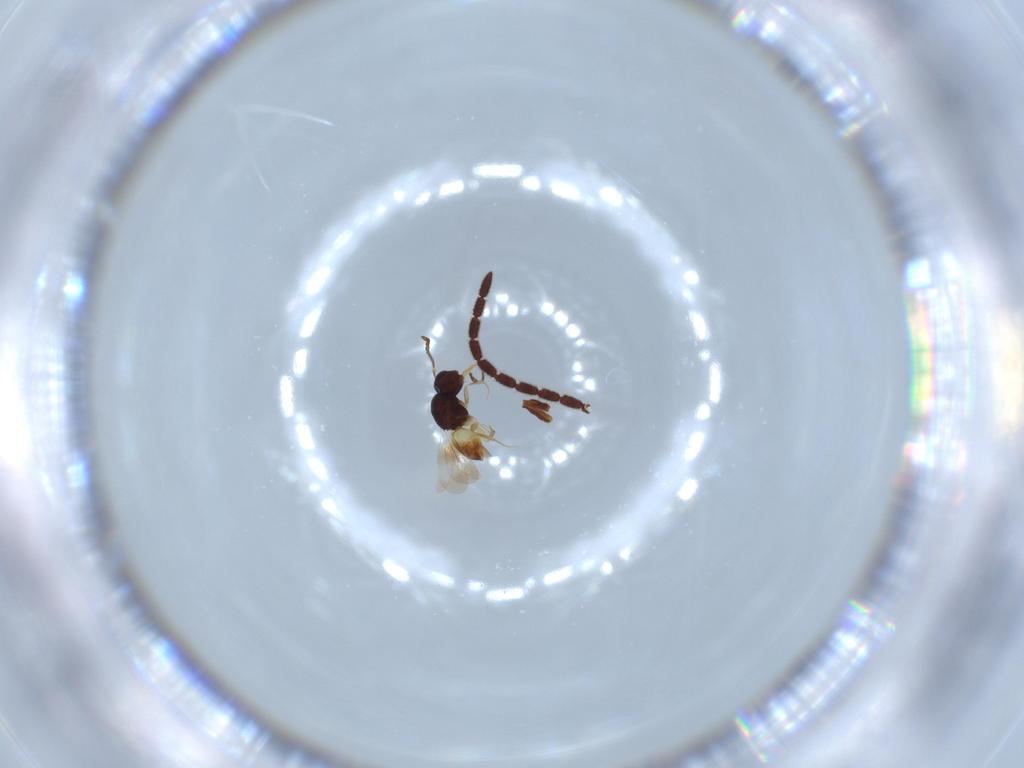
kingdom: Animalia
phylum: Arthropoda
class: Insecta
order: Hymenoptera
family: Diapriidae
